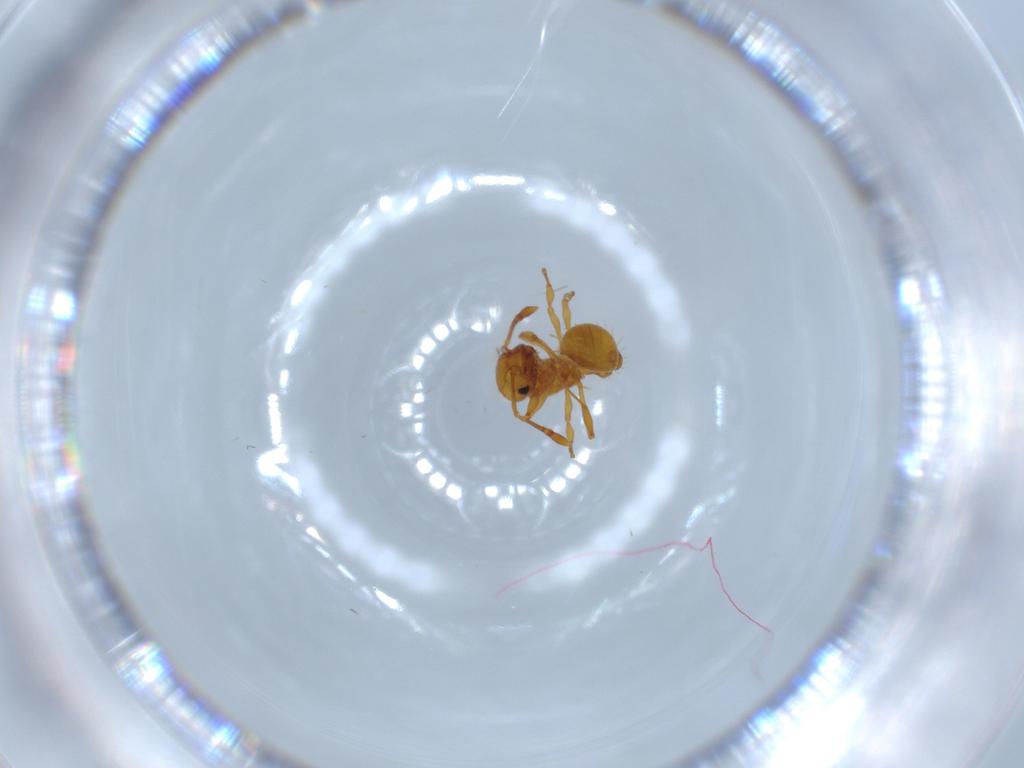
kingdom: Animalia
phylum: Arthropoda
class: Insecta
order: Hymenoptera
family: Formicidae
